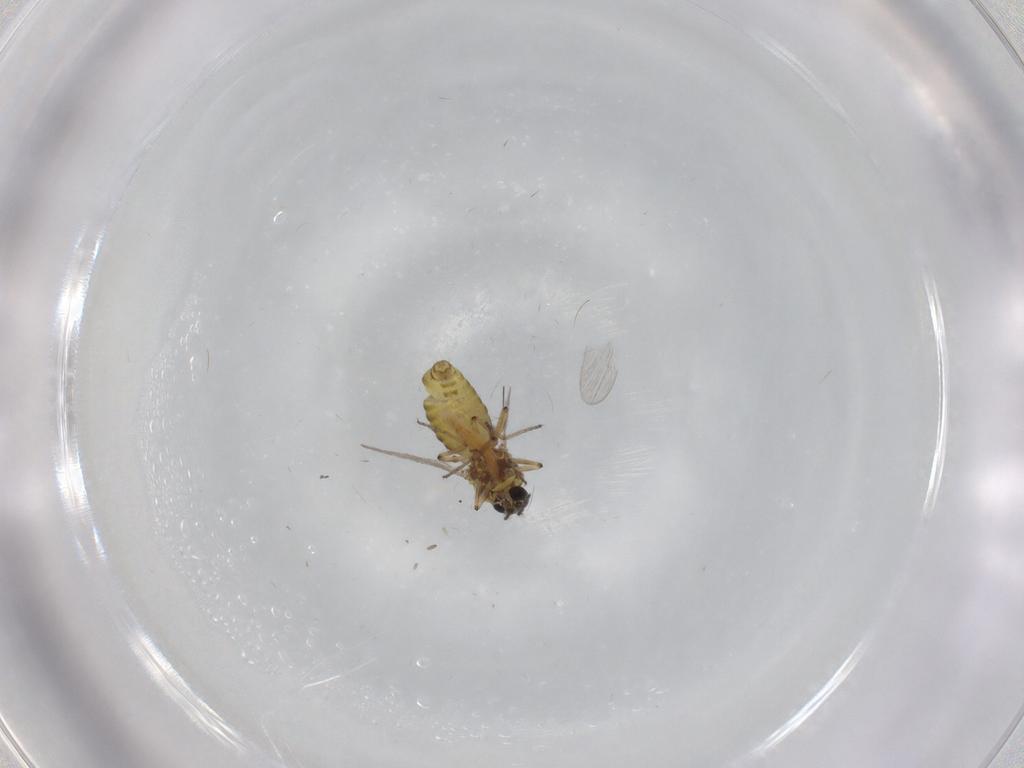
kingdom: Animalia
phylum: Arthropoda
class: Insecta
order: Diptera
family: Ceratopogonidae
